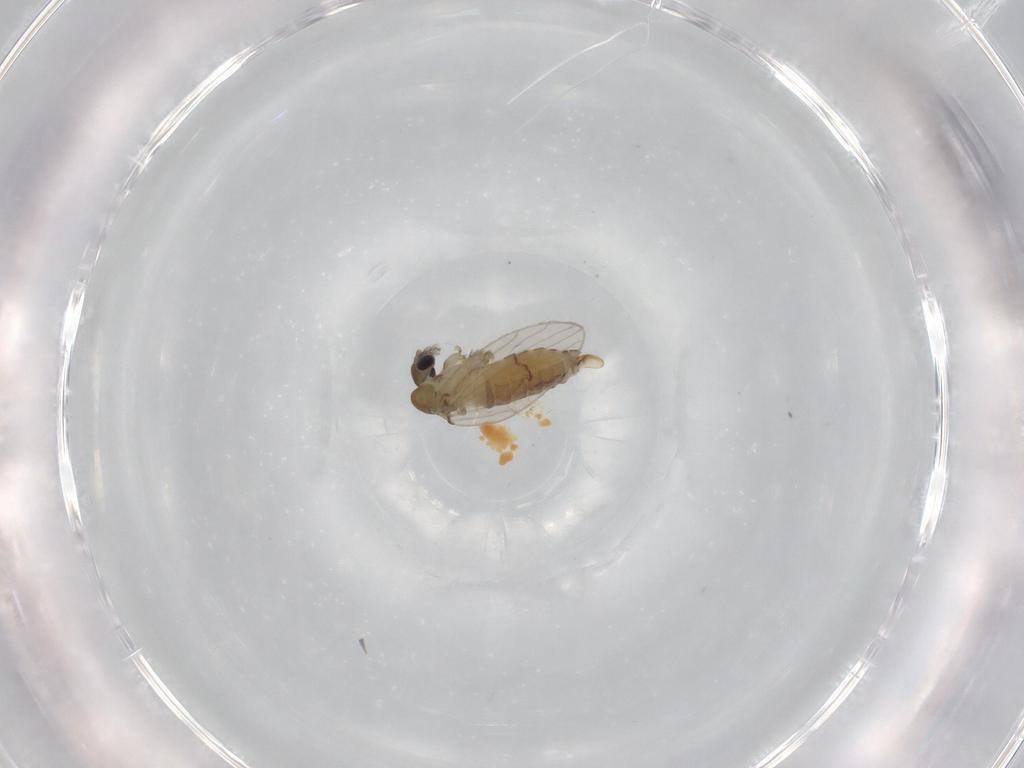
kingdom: Animalia
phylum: Arthropoda
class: Insecta
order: Diptera
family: Psychodidae
